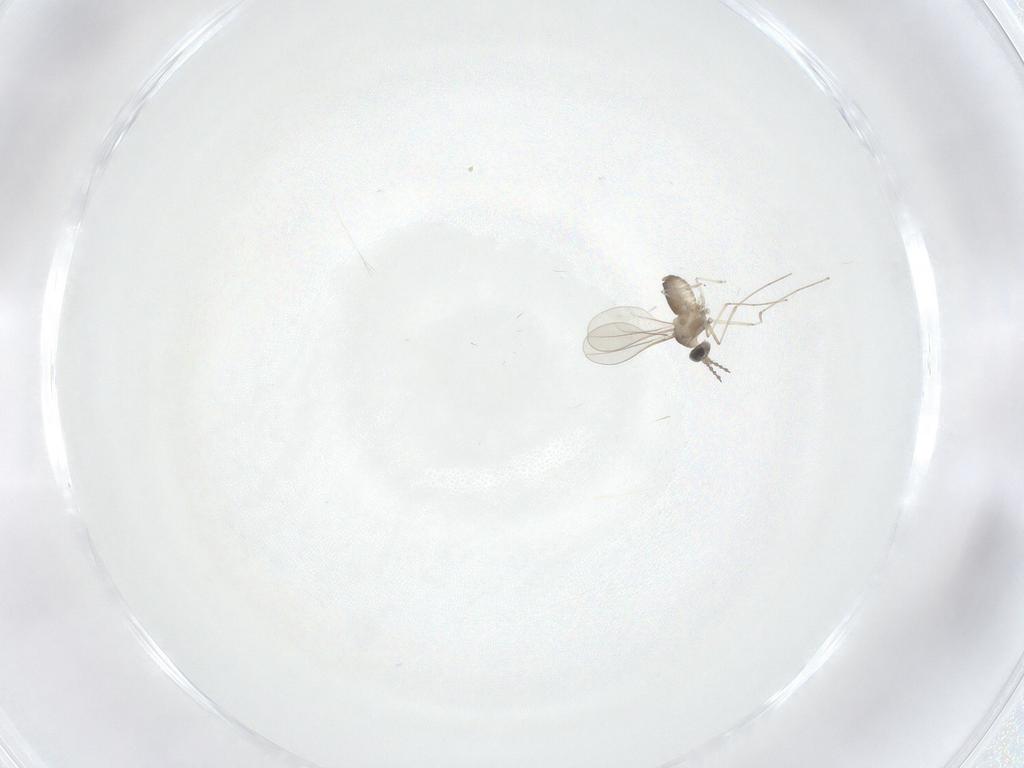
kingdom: Animalia
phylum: Arthropoda
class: Insecta
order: Diptera
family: Cecidomyiidae
